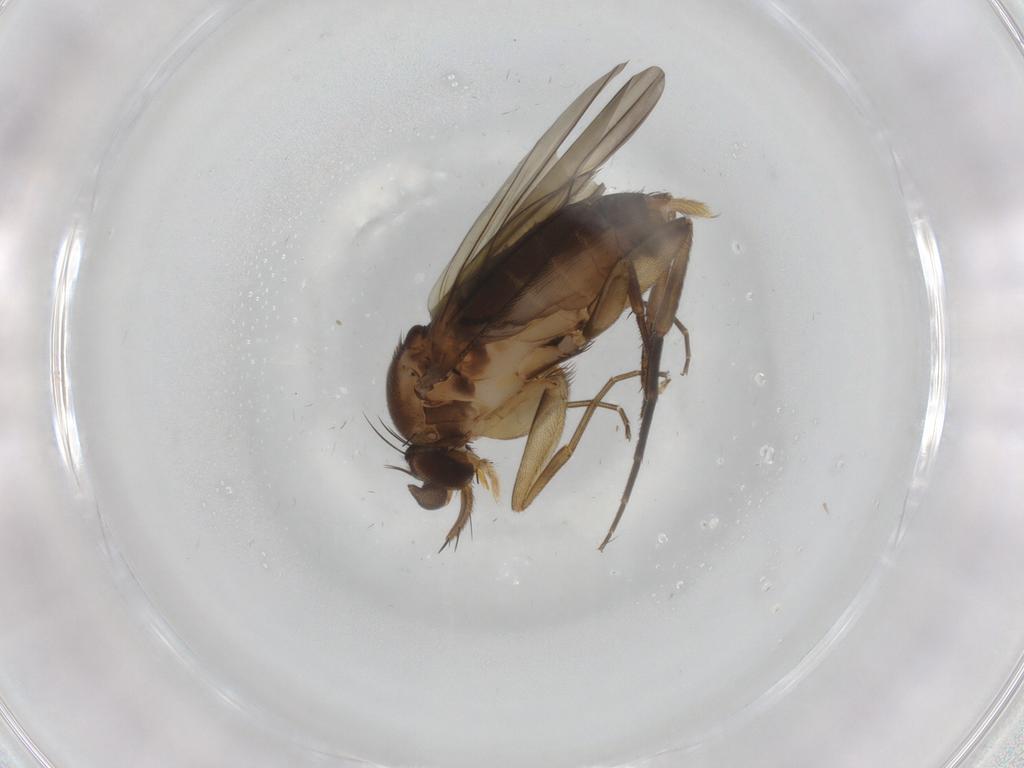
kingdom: Animalia
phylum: Arthropoda
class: Insecta
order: Diptera
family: Phoridae
